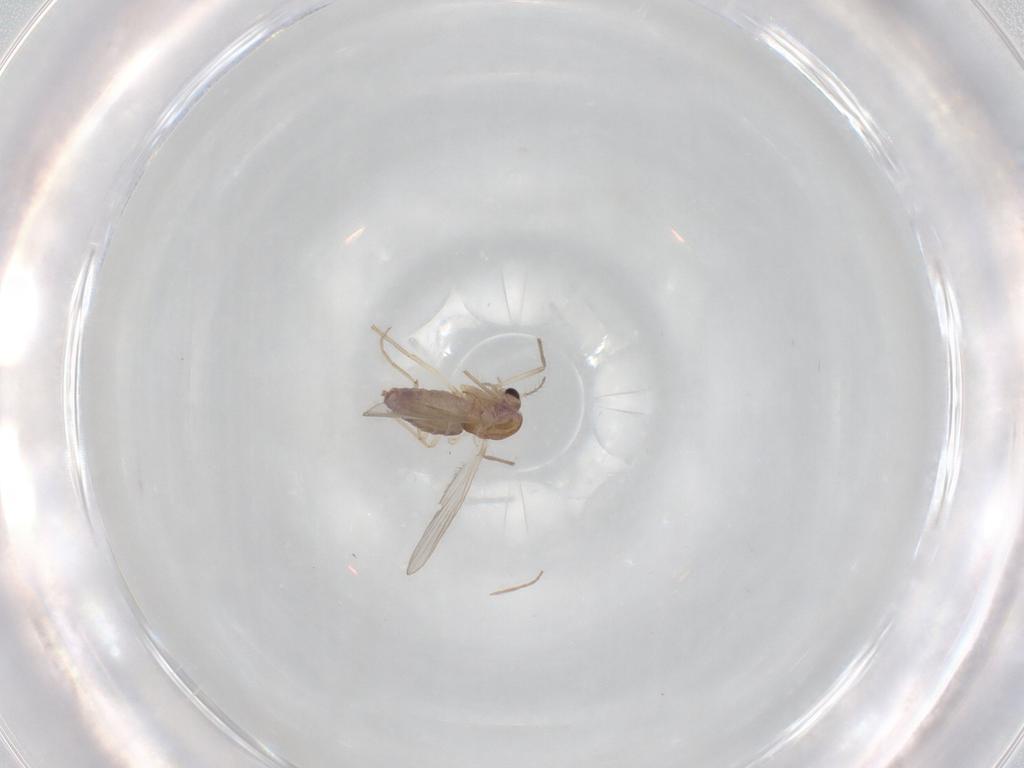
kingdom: Animalia
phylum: Arthropoda
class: Insecta
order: Diptera
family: Chironomidae
